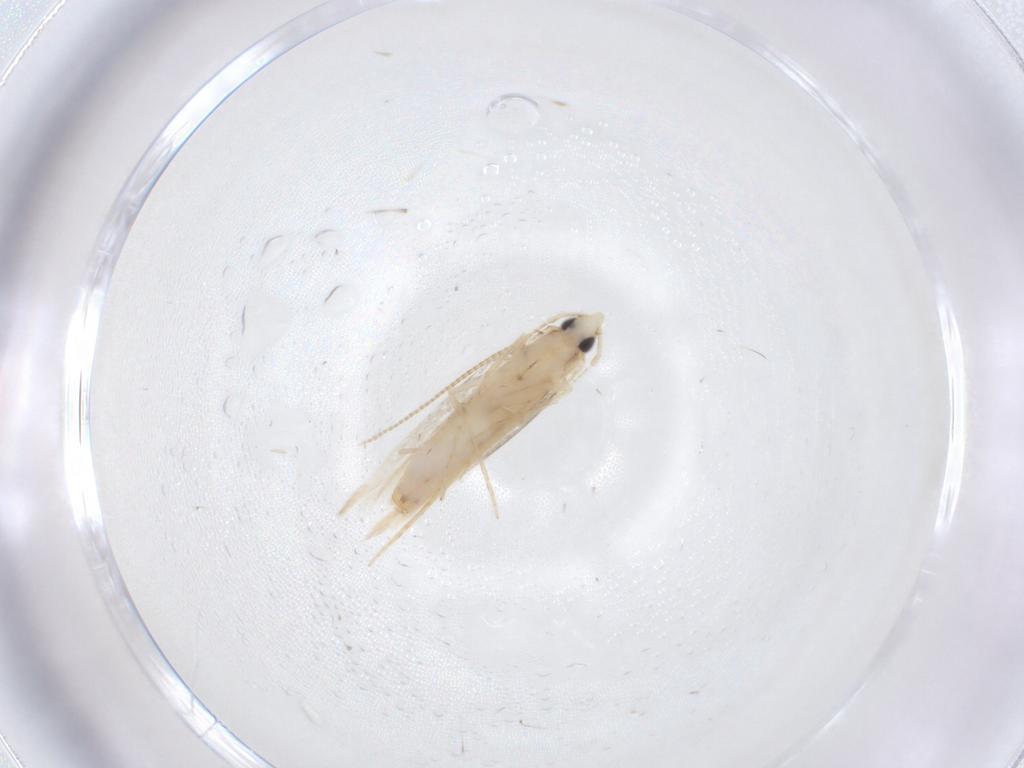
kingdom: Animalia
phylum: Arthropoda
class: Insecta
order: Lepidoptera
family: Tineidae
